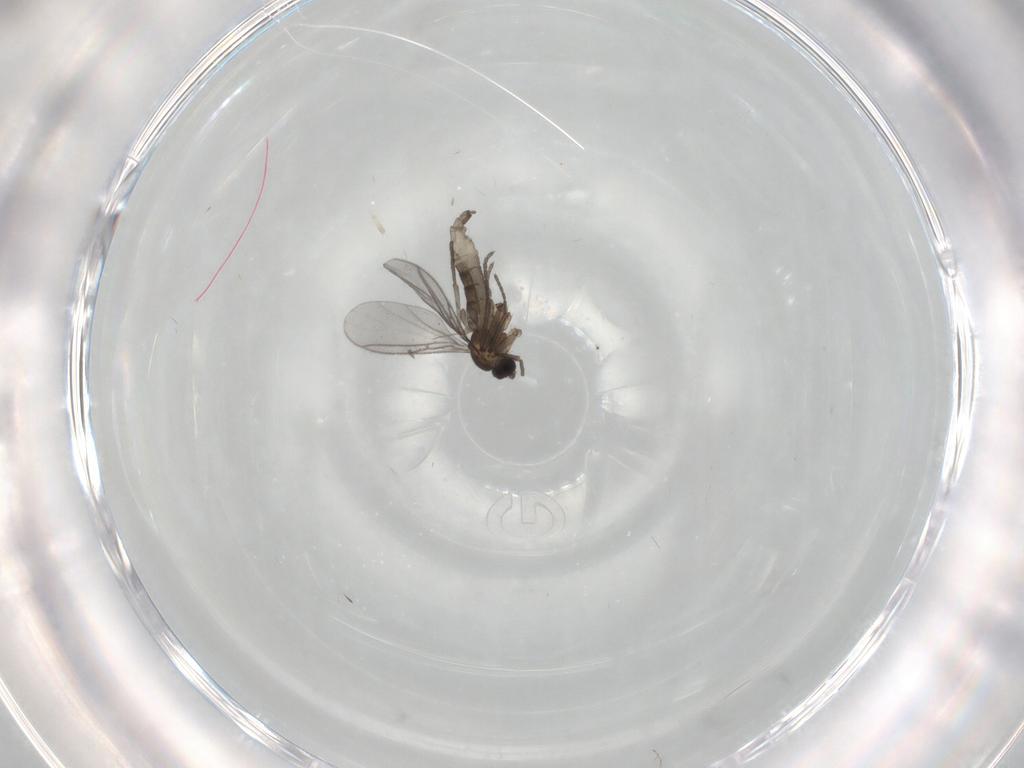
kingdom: Animalia
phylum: Arthropoda
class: Insecta
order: Diptera
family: Sciaridae
